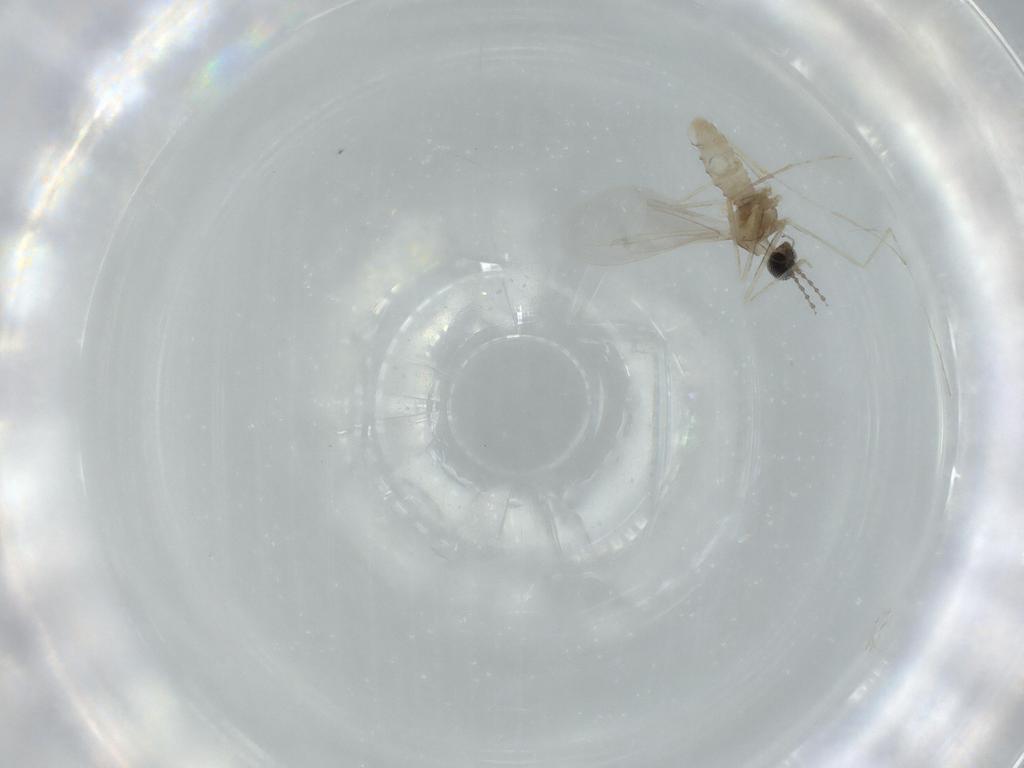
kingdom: Animalia
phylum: Arthropoda
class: Insecta
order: Diptera
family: Cecidomyiidae
